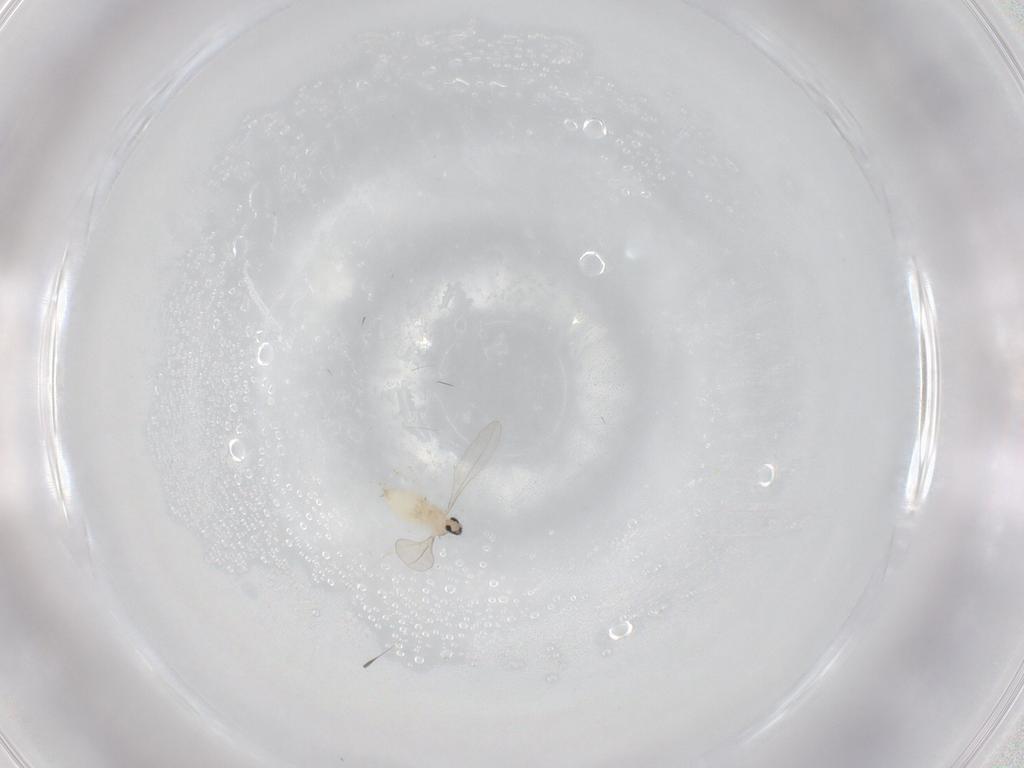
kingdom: Animalia
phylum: Arthropoda
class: Insecta
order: Diptera
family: Cecidomyiidae
